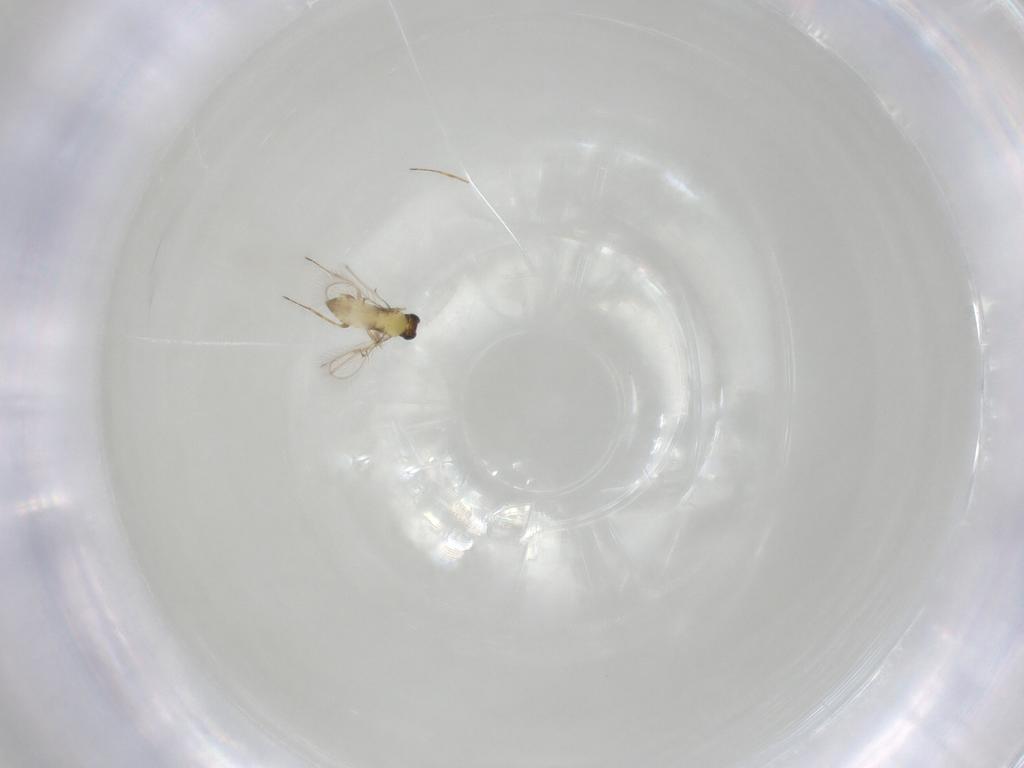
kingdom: Animalia
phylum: Arthropoda
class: Insecta
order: Hymenoptera
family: Trichogrammatidae
